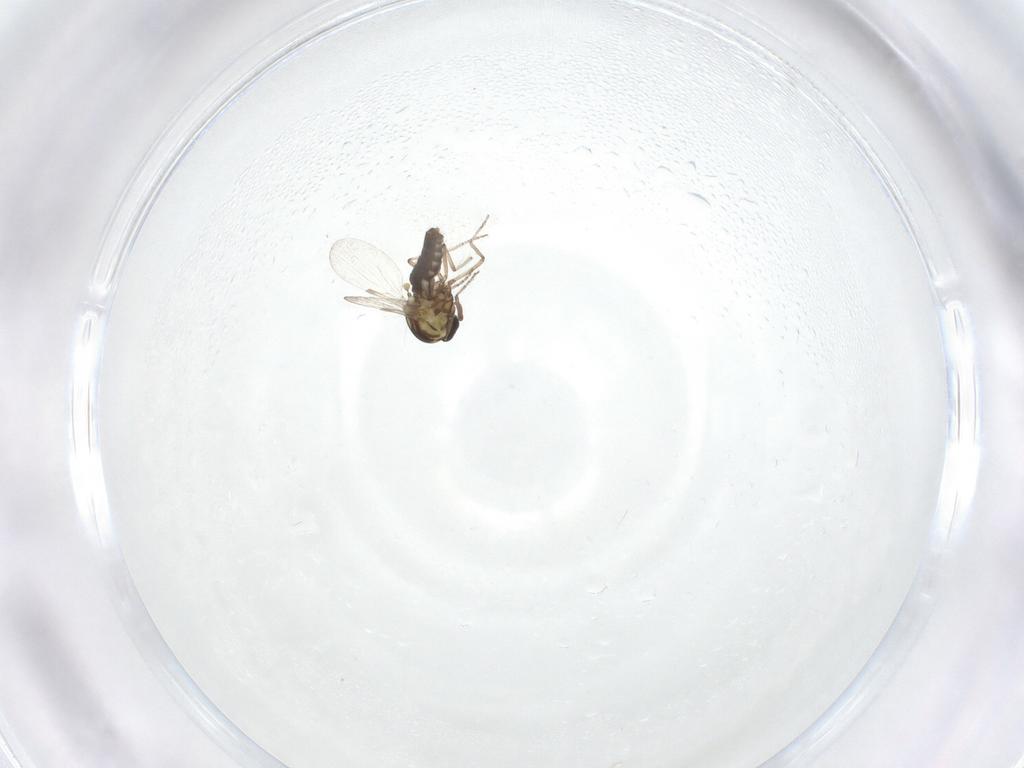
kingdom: Animalia
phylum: Arthropoda
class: Insecta
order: Diptera
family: Ceratopogonidae
